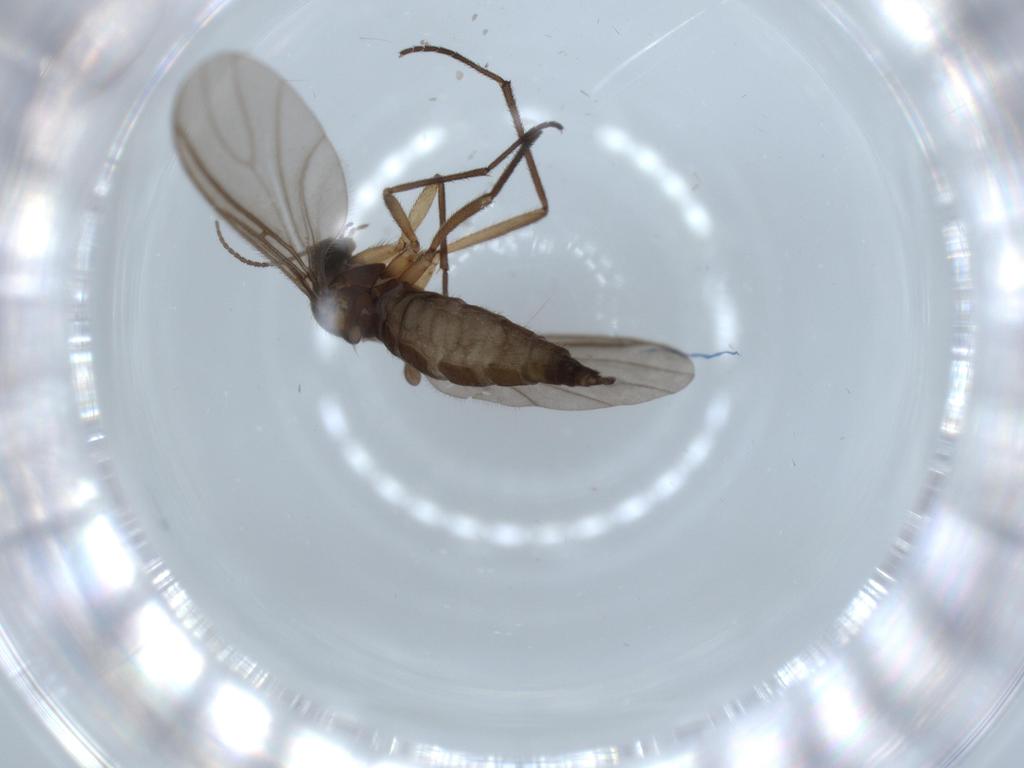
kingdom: Animalia
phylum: Arthropoda
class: Insecta
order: Diptera
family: Sciaridae
